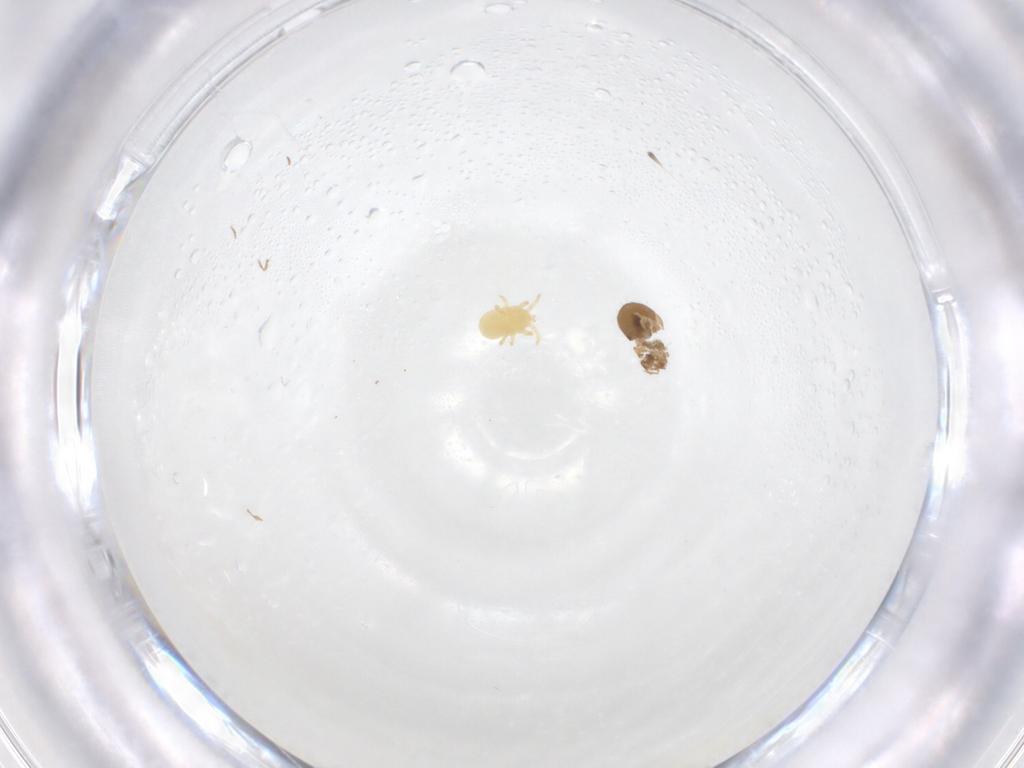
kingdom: Animalia
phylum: Arthropoda
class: Arachnida
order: Sarcoptiformes
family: Oribatulidae
